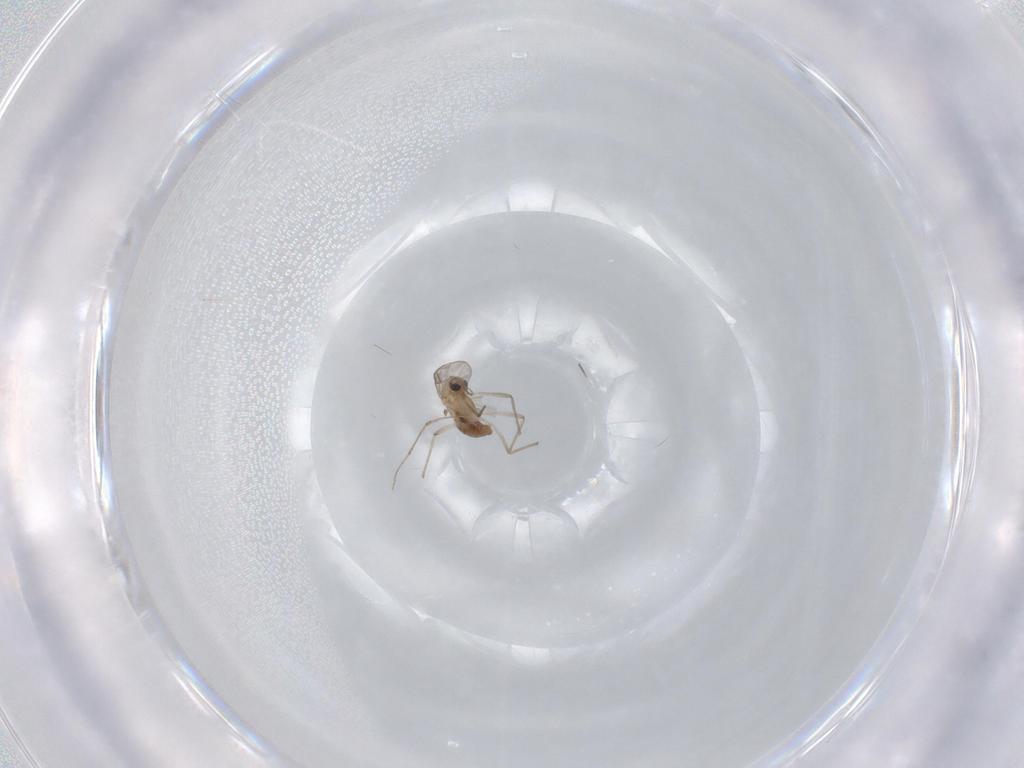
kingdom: Animalia
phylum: Arthropoda
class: Insecta
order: Diptera
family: Chironomidae
